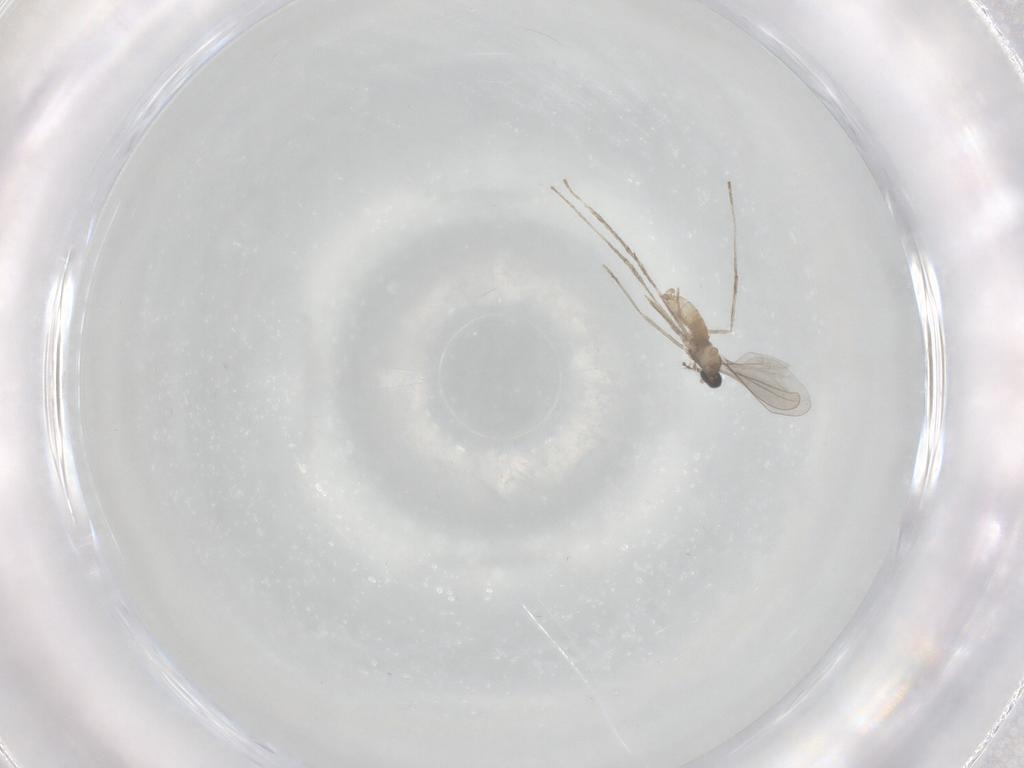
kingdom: Animalia
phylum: Arthropoda
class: Insecta
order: Diptera
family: Cecidomyiidae
